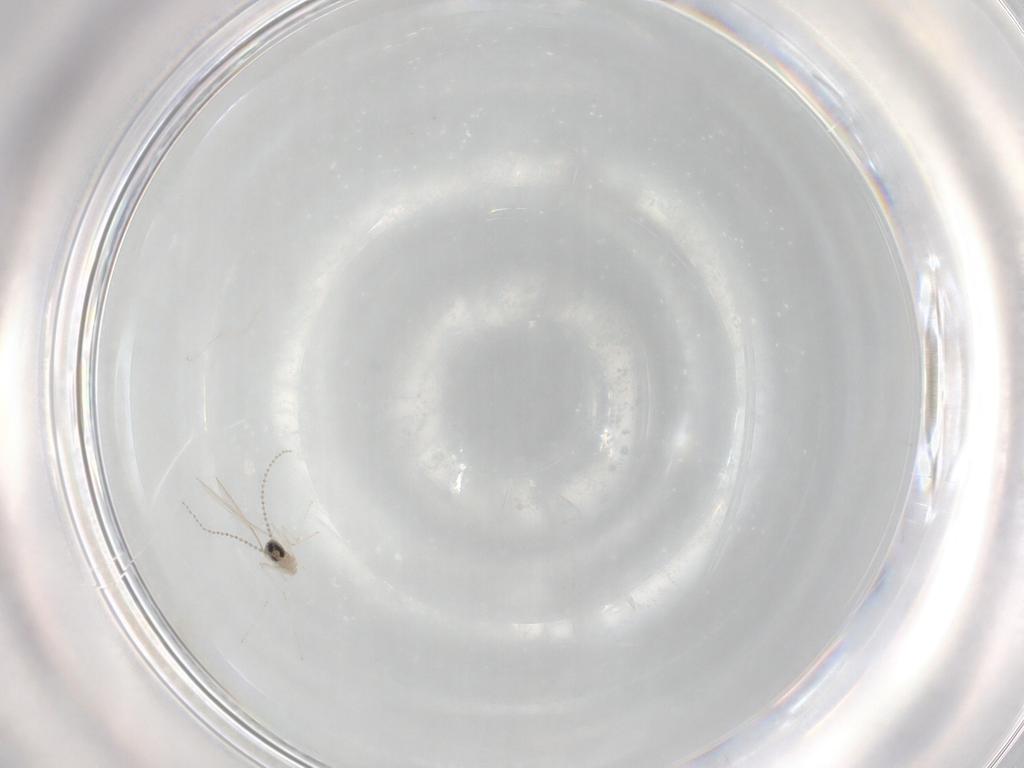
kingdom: Animalia
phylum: Arthropoda
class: Insecta
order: Diptera
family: Cecidomyiidae
